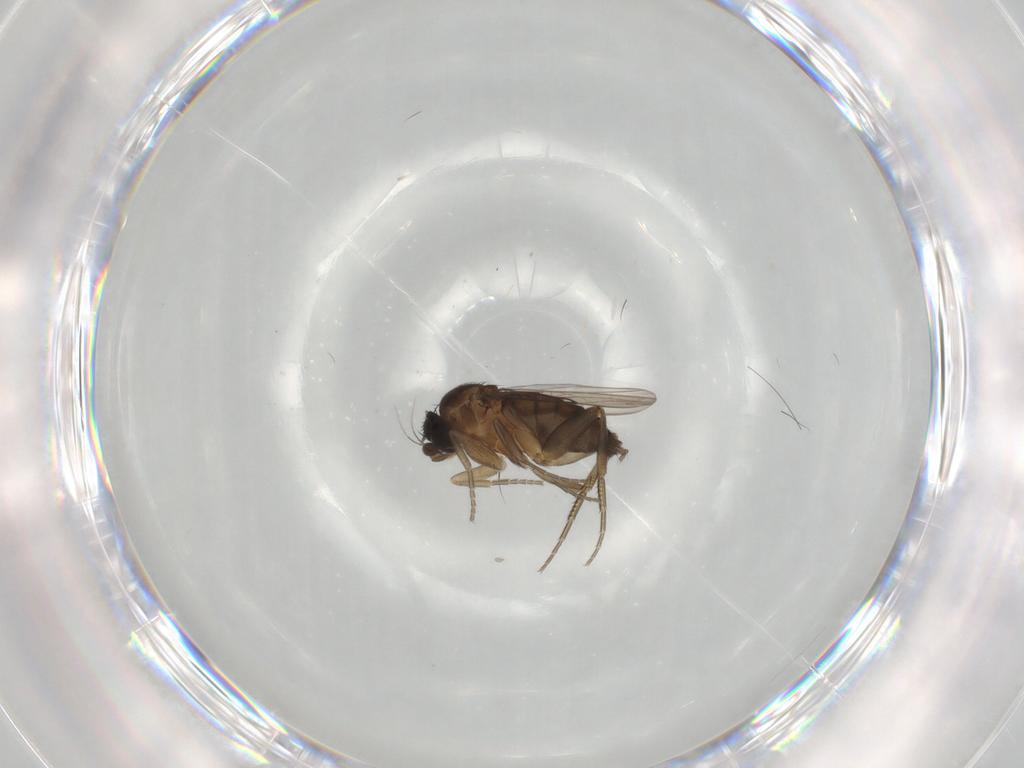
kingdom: Animalia
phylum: Arthropoda
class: Insecta
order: Diptera
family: Phoridae
